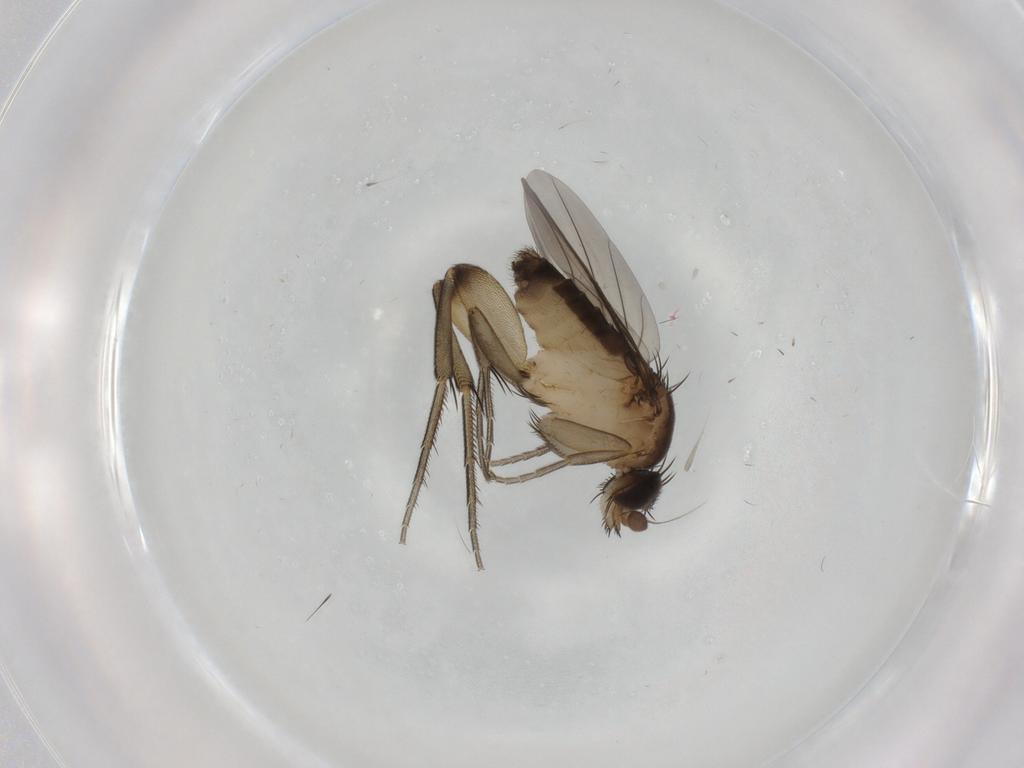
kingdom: Animalia
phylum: Arthropoda
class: Insecta
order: Diptera
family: Phoridae
